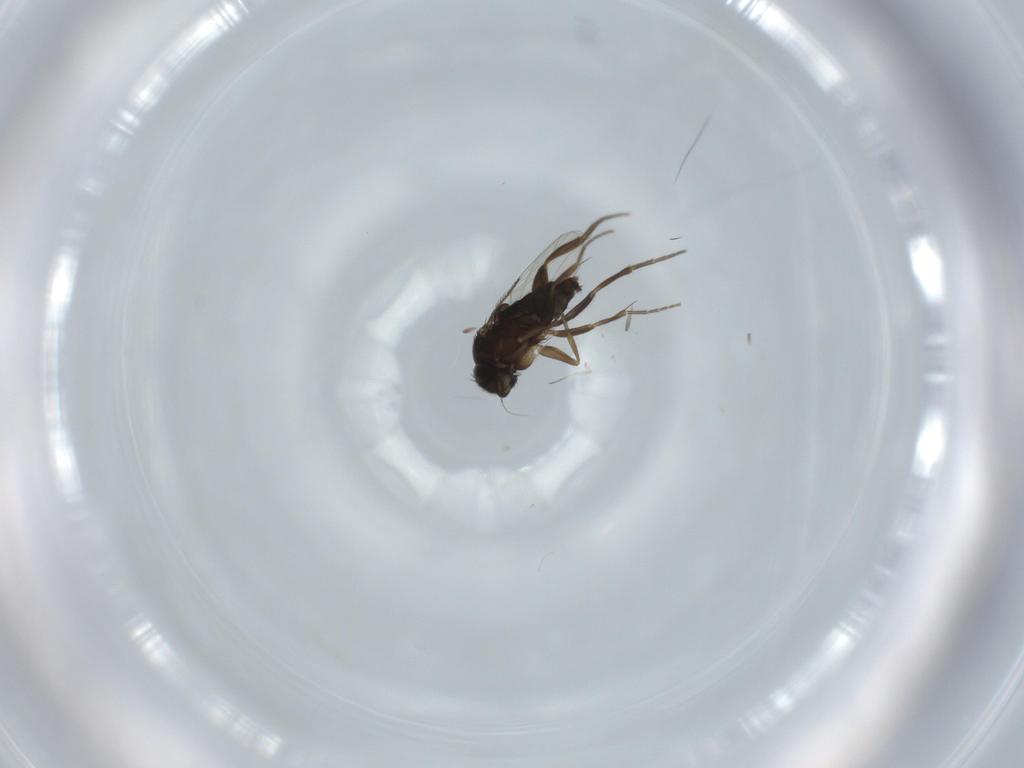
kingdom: Animalia
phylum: Arthropoda
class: Insecta
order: Diptera
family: Phoridae
